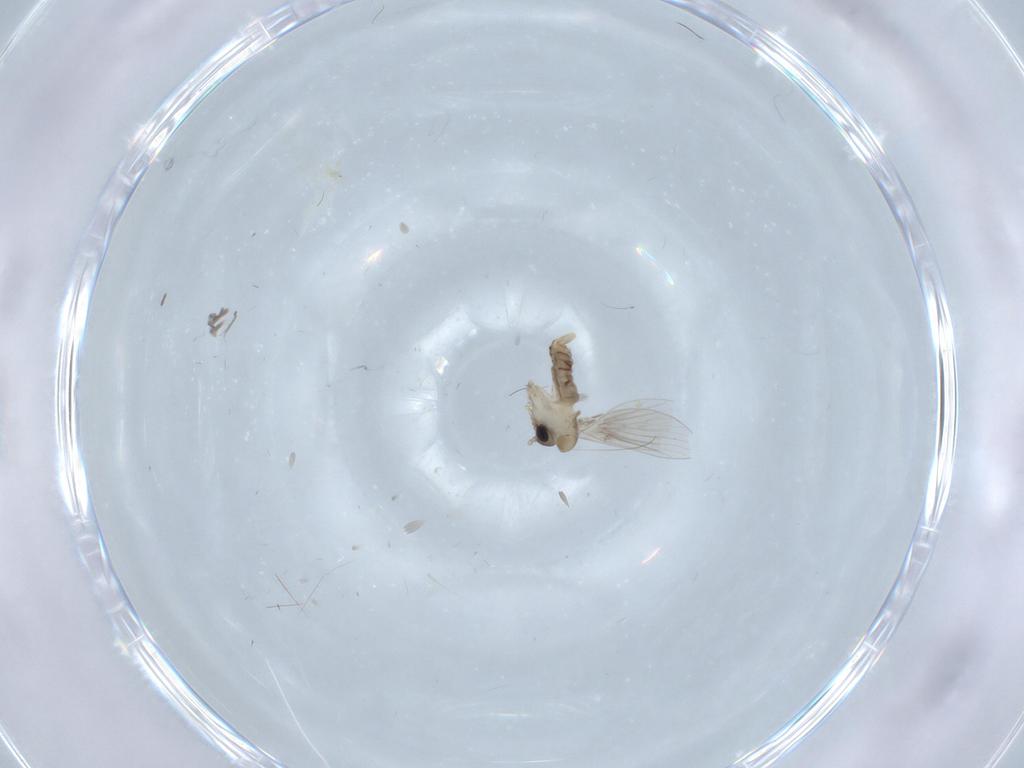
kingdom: Animalia
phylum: Arthropoda
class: Insecta
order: Diptera
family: Psychodidae
